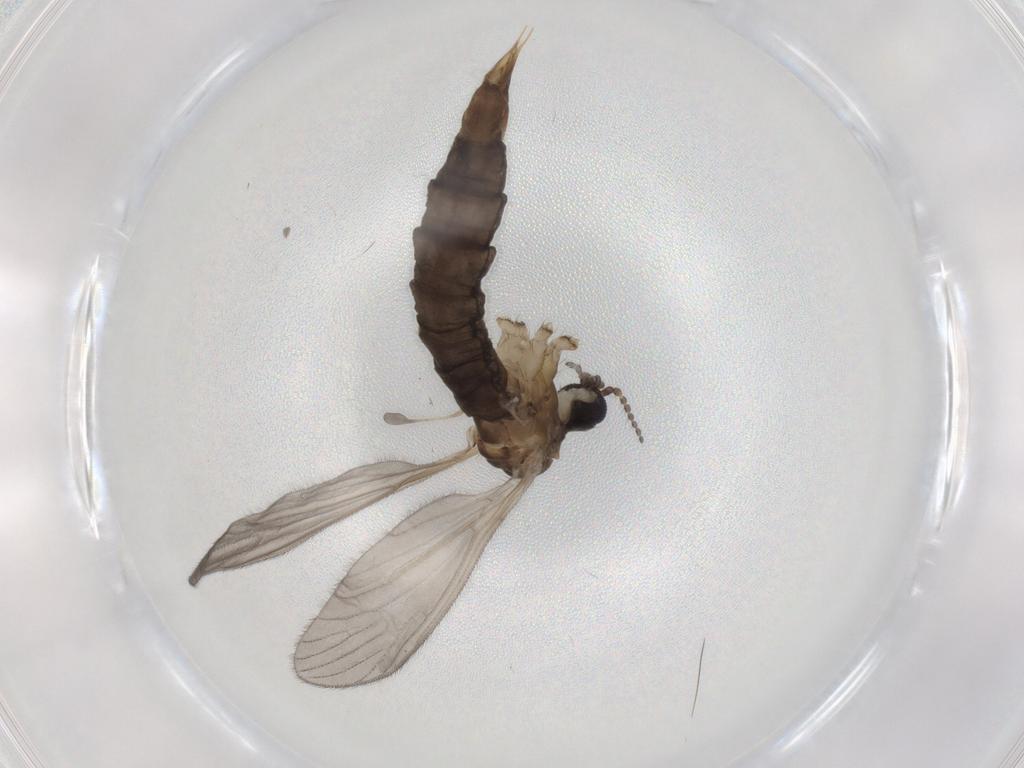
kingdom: Animalia
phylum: Arthropoda
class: Insecta
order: Diptera
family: Limoniidae
